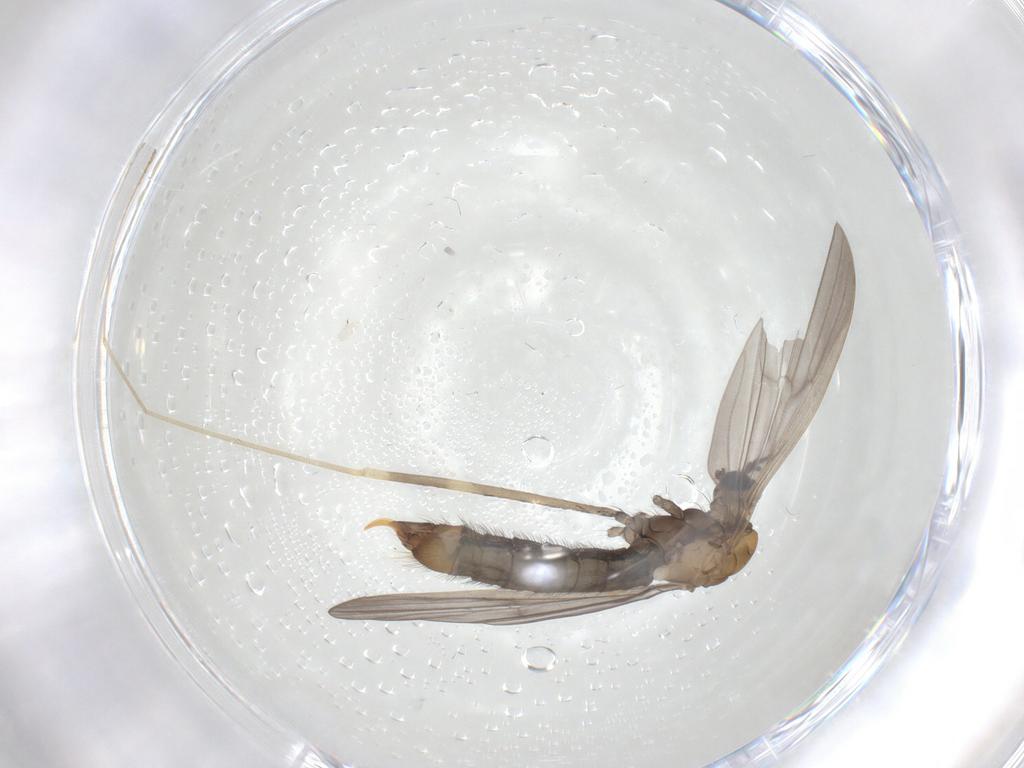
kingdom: Animalia
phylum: Arthropoda
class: Insecta
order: Diptera
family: Limoniidae
